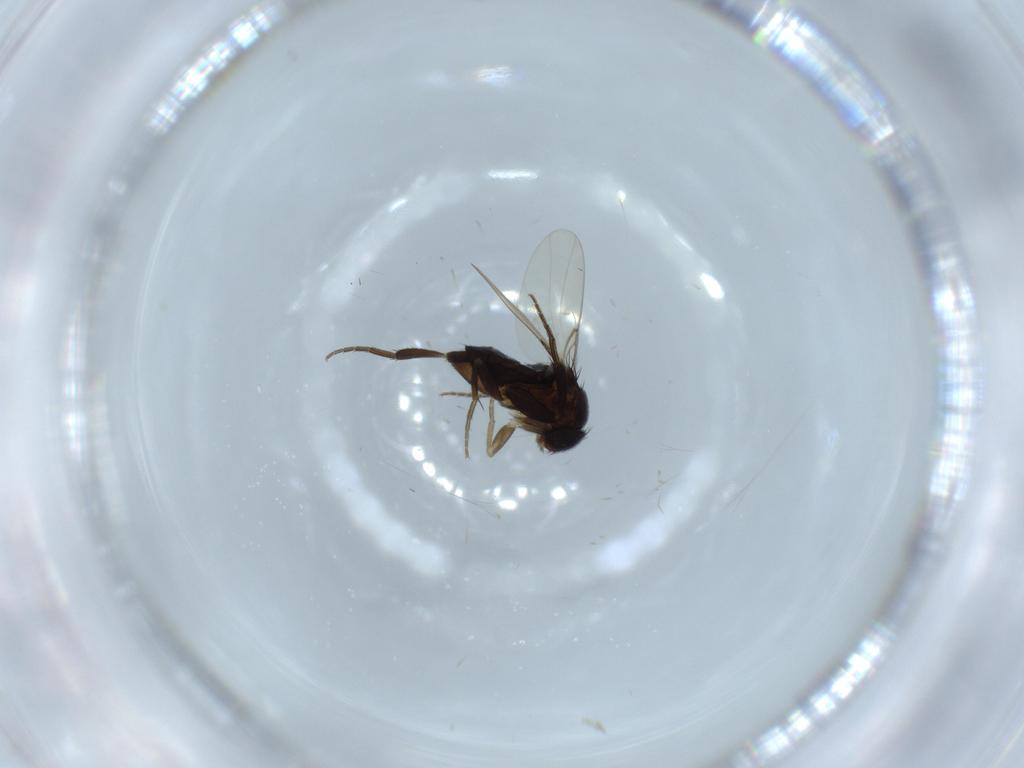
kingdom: Animalia
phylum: Arthropoda
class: Insecta
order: Diptera
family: Phoridae
